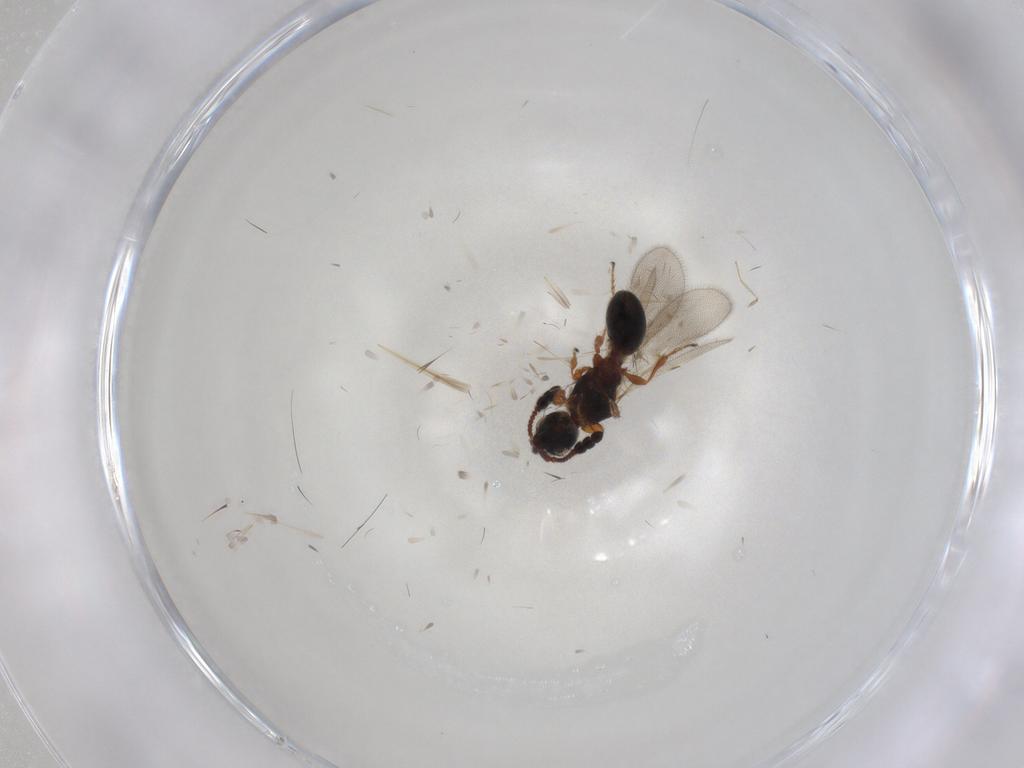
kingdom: Animalia
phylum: Arthropoda
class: Insecta
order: Hymenoptera
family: Diapriidae
